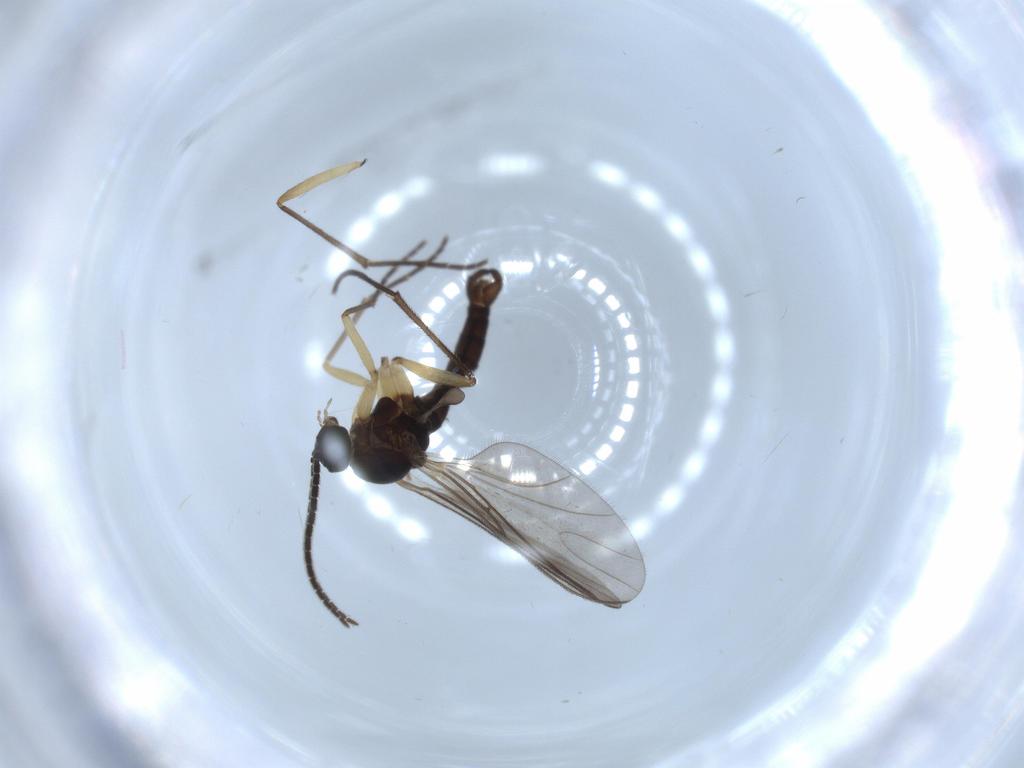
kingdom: Animalia
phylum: Arthropoda
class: Insecta
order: Diptera
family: Sciaridae
